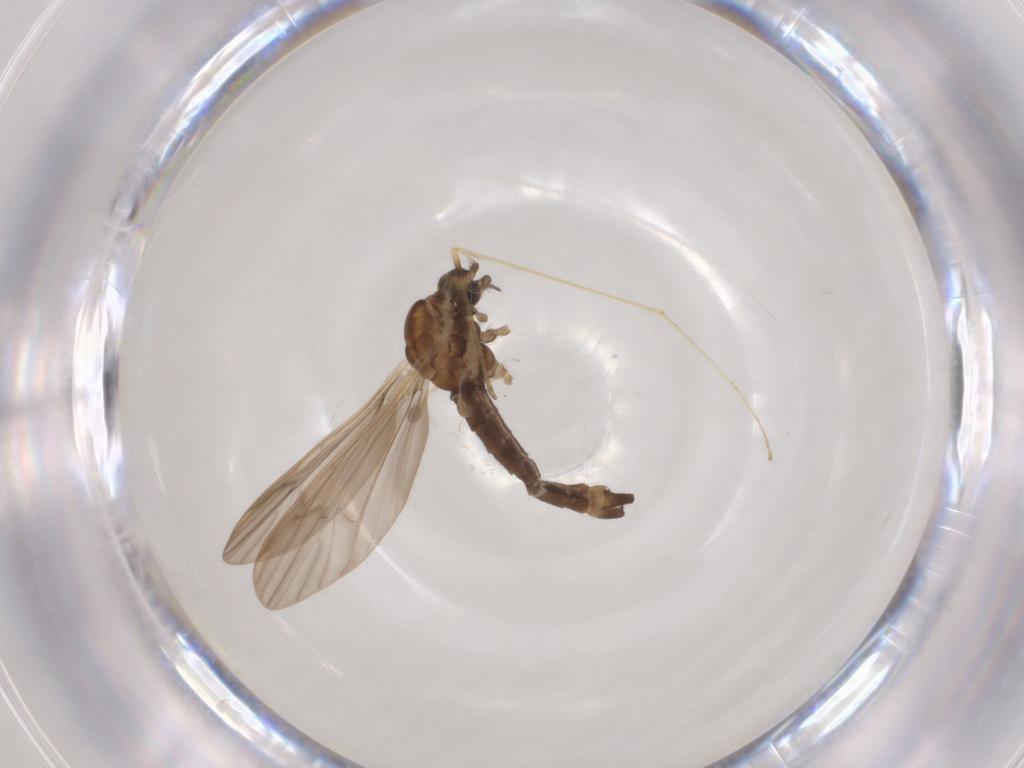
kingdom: Animalia
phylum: Arthropoda
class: Insecta
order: Diptera
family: Limoniidae
